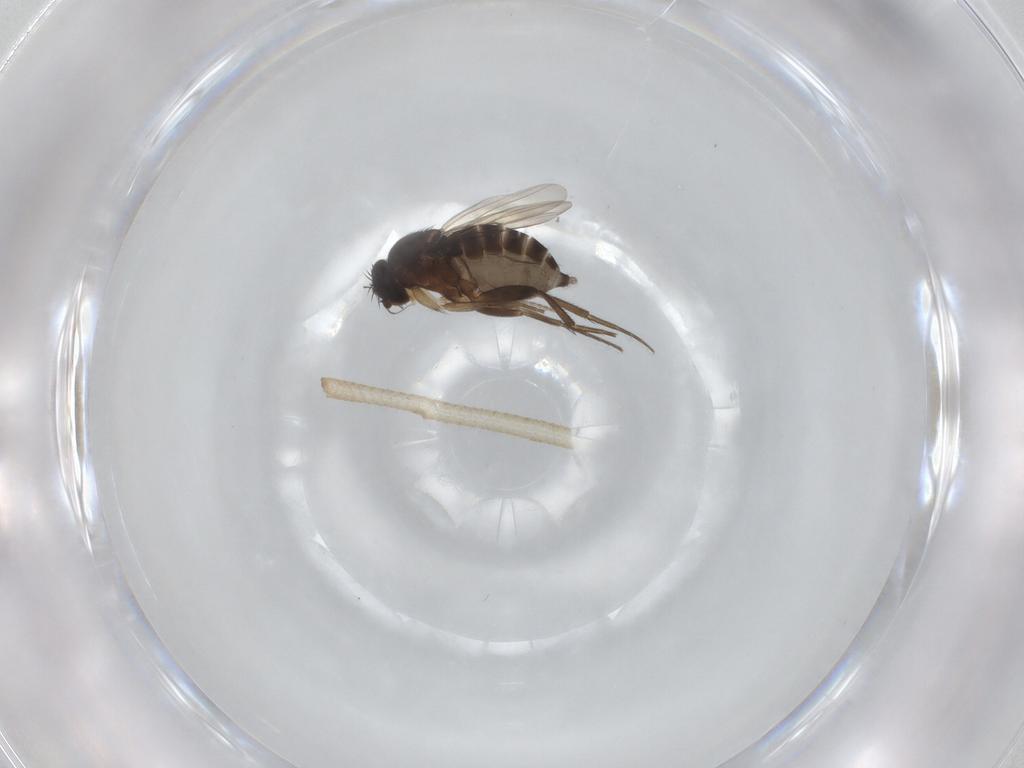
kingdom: Animalia
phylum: Arthropoda
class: Insecta
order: Diptera
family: Phoridae
